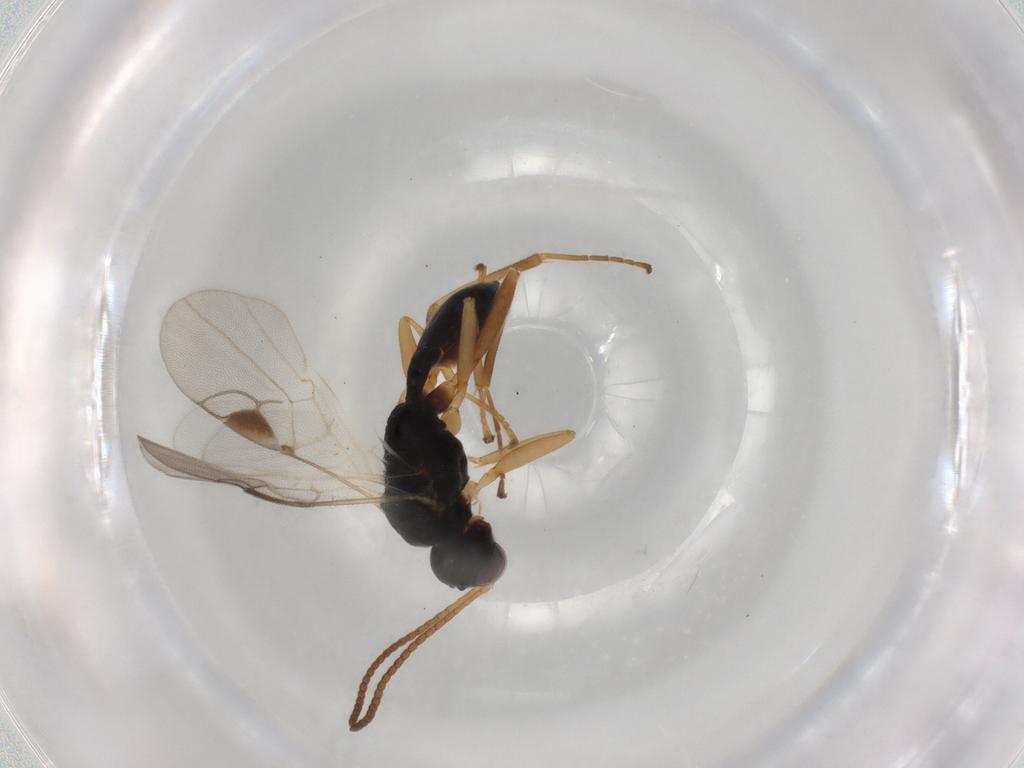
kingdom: Animalia
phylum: Arthropoda
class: Insecta
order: Hymenoptera
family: Braconidae
